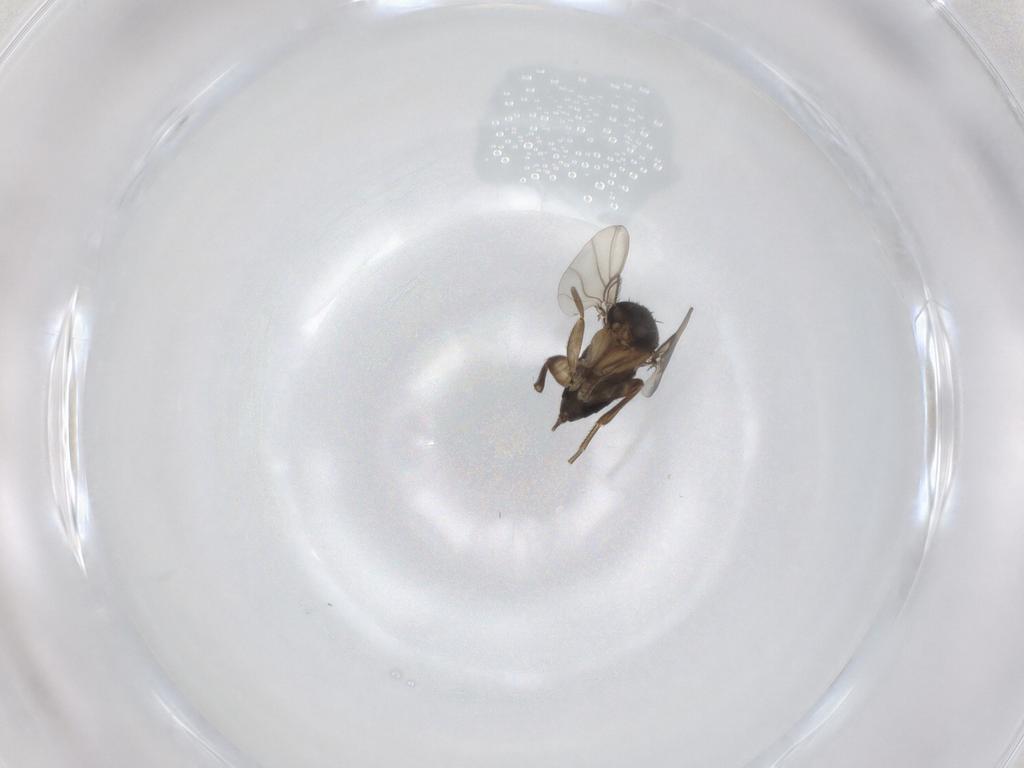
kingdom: Animalia
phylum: Arthropoda
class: Insecta
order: Diptera
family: Phoridae
